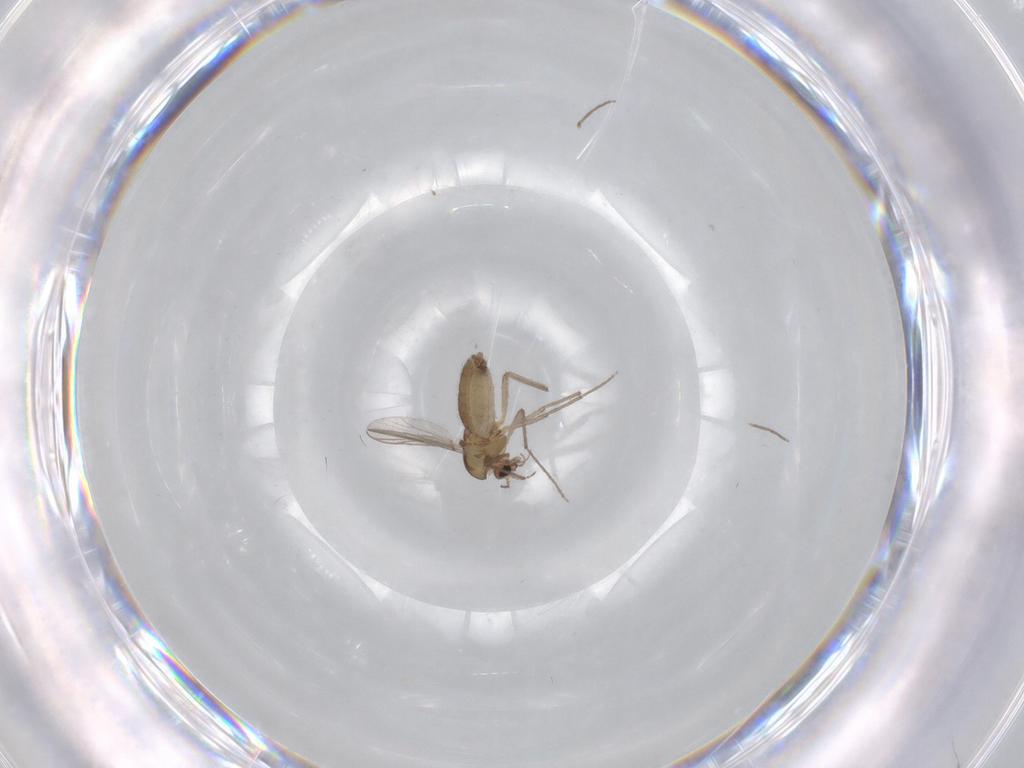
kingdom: Animalia
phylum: Arthropoda
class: Insecta
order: Diptera
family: Chironomidae
